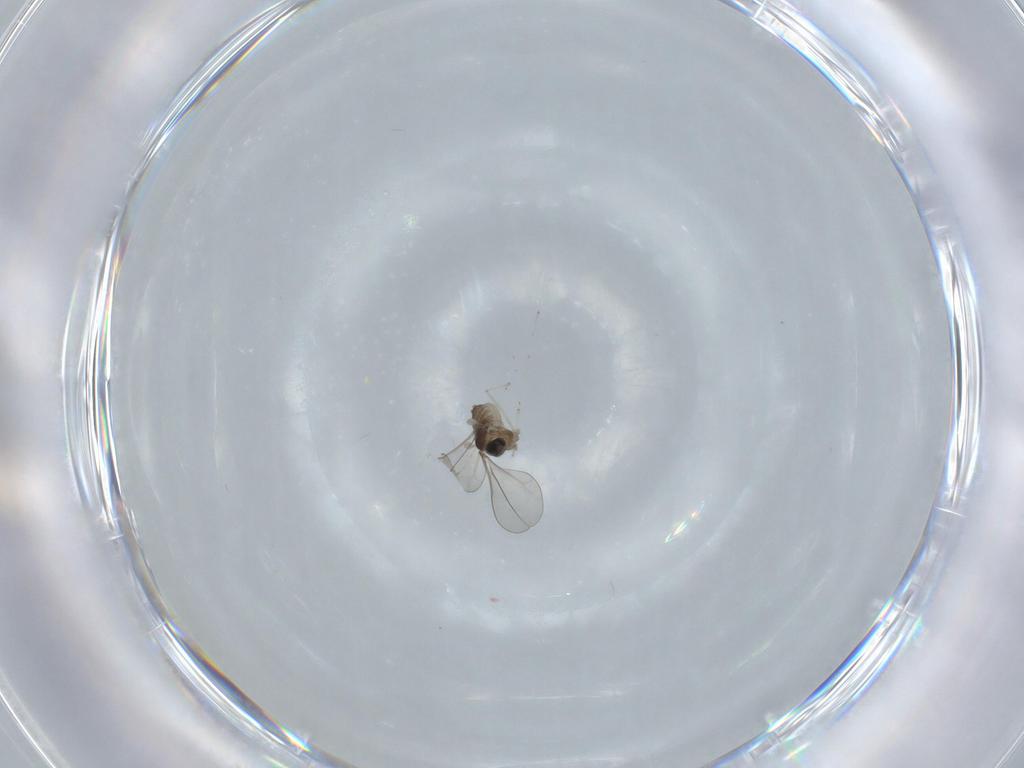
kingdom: Animalia
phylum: Arthropoda
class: Insecta
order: Diptera
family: Cecidomyiidae
